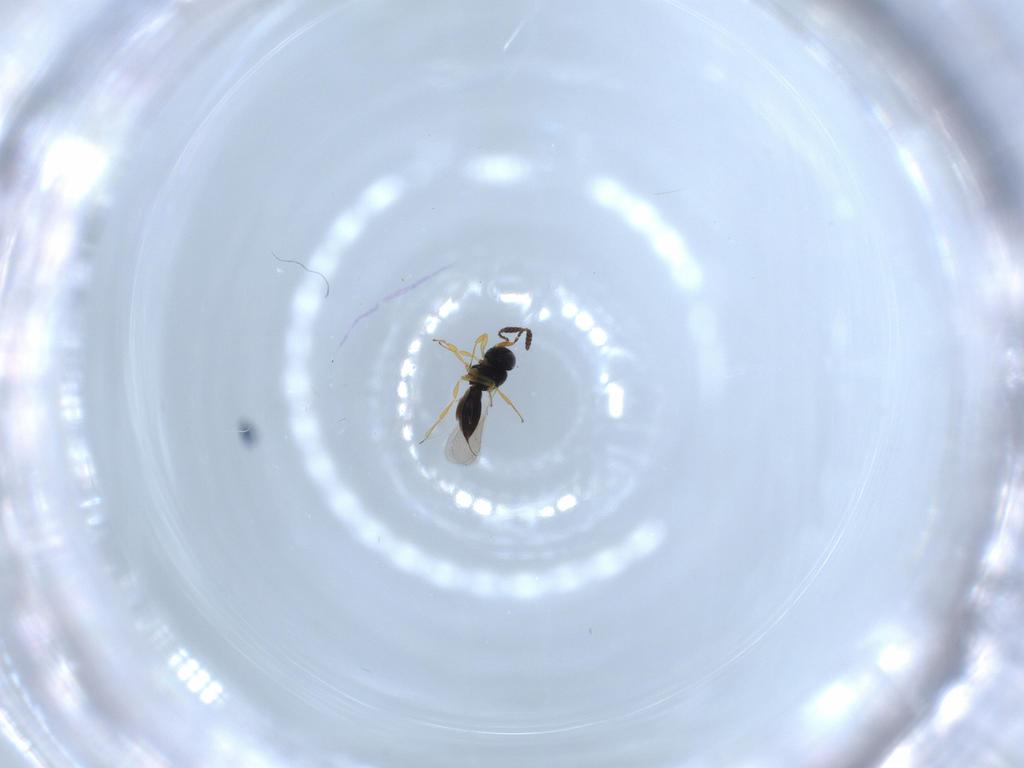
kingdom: Animalia
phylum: Arthropoda
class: Insecta
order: Hymenoptera
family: Scelionidae
